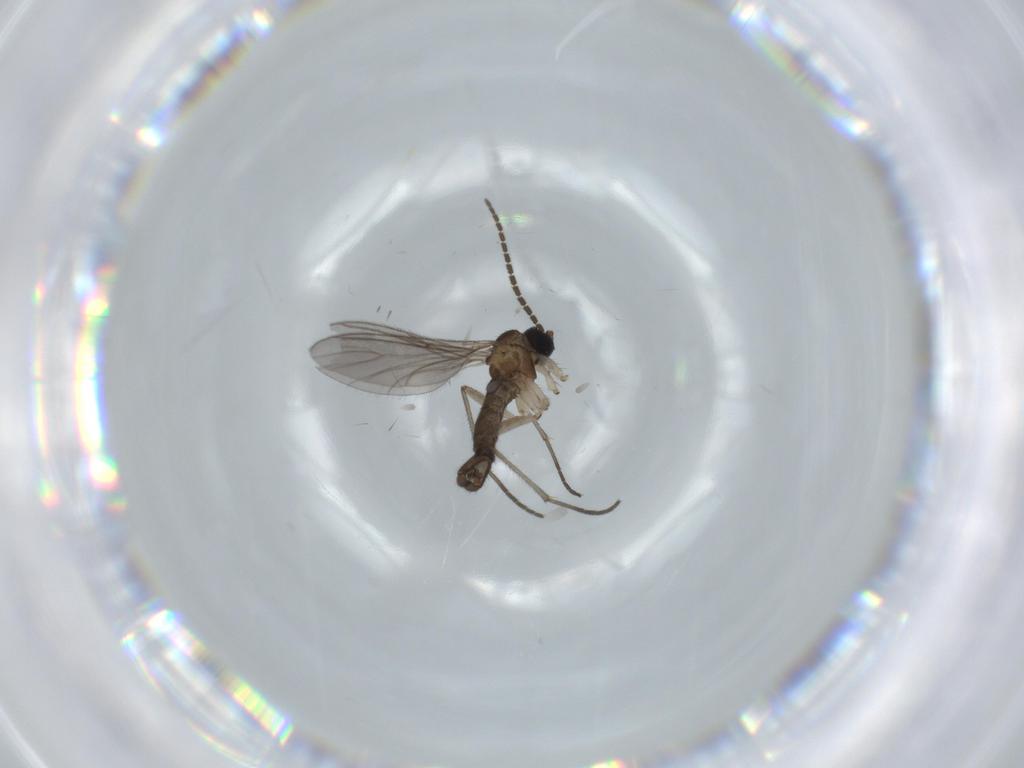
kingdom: Animalia
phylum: Arthropoda
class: Insecta
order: Diptera
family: Sciaridae
